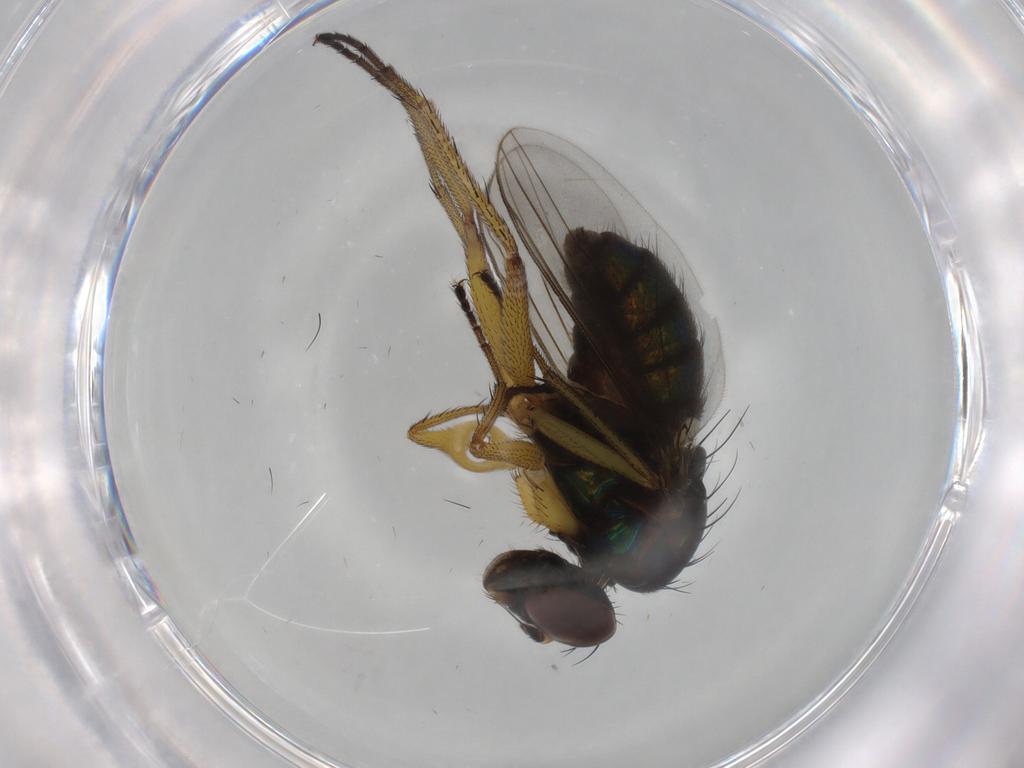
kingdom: Animalia
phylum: Arthropoda
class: Insecta
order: Diptera
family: Dolichopodidae
